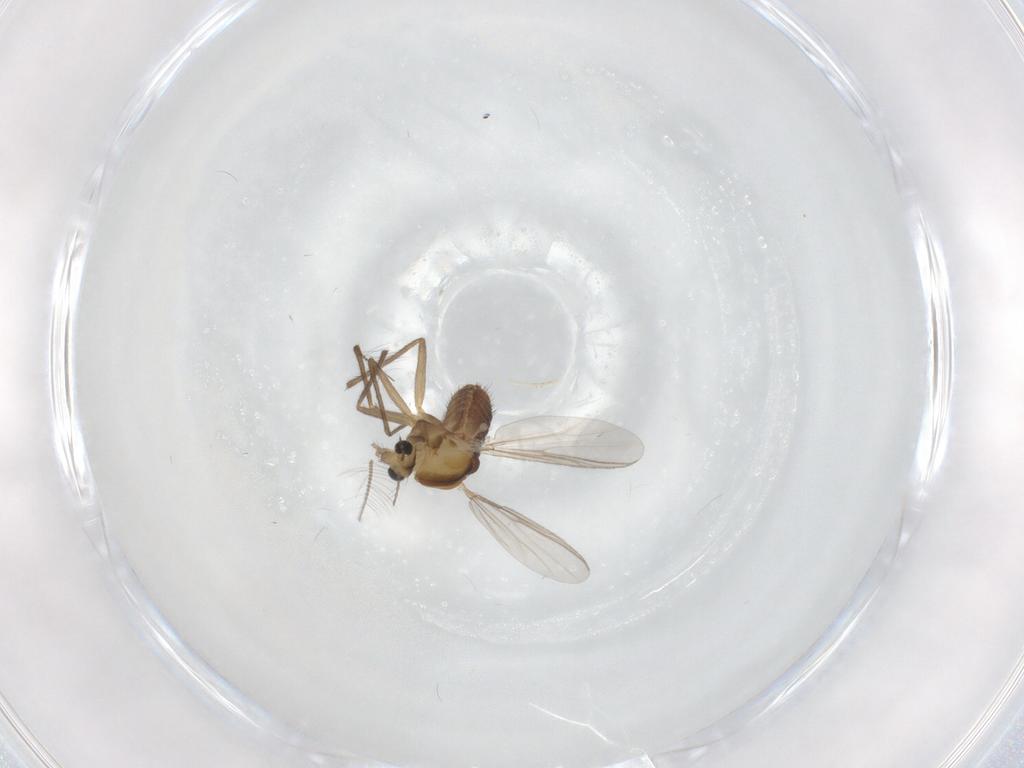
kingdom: Animalia
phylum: Arthropoda
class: Insecta
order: Diptera
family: Chironomidae
